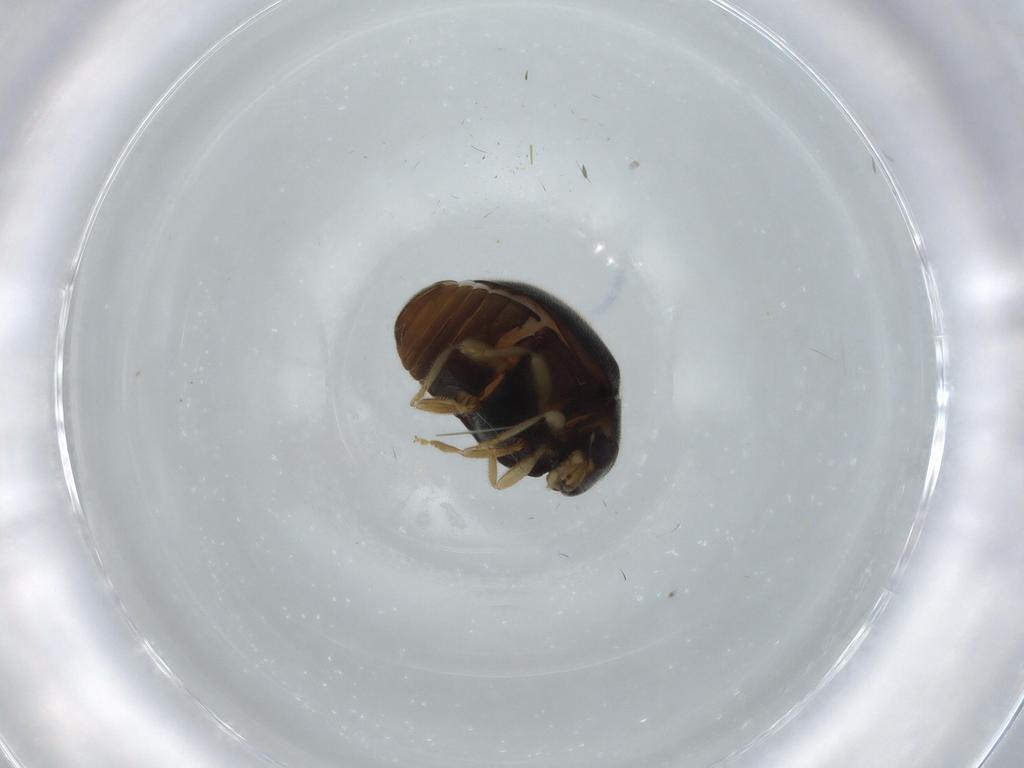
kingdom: Animalia
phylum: Arthropoda
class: Insecta
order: Coleoptera
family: Coccinellidae
